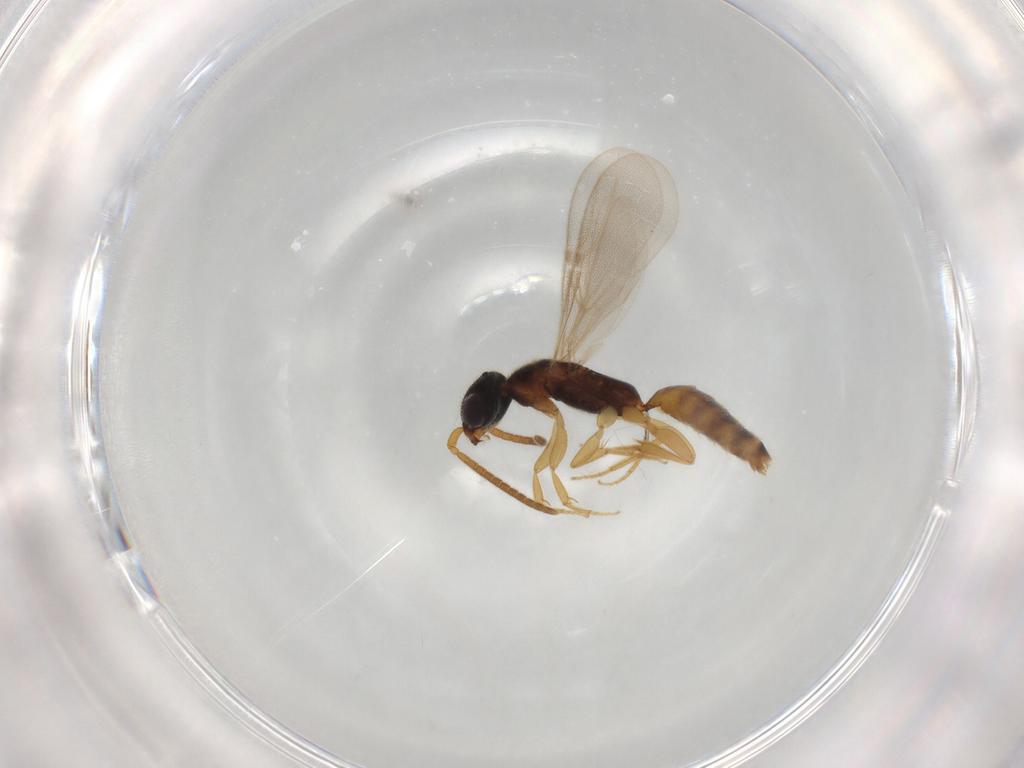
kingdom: Animalia
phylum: Arthropoda
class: Insecta
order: Hymenoptera
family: Bethylidae
